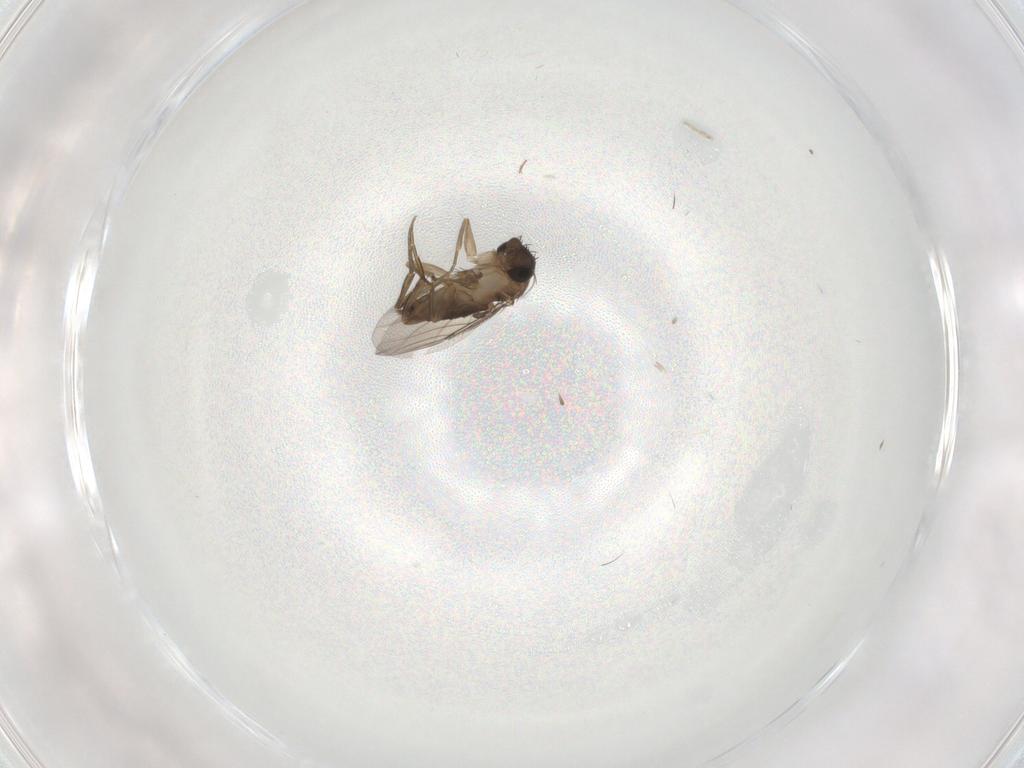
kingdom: Animalia
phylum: Arthropoda
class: Insecta
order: Diptera
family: Phoridae
